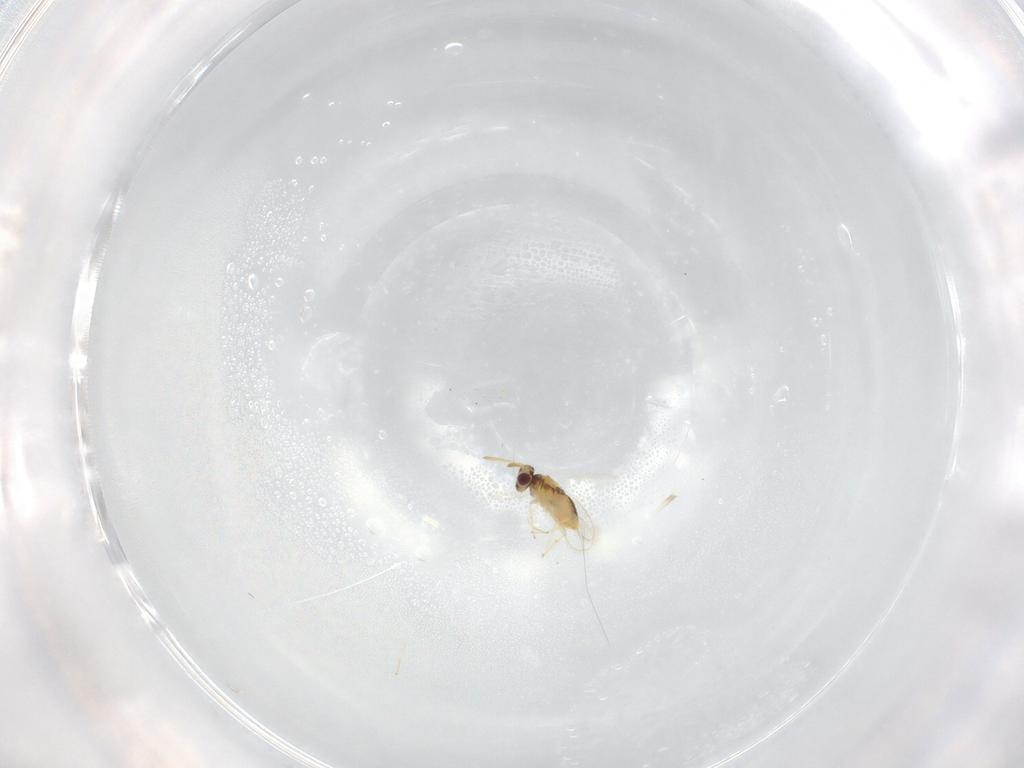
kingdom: Animalia
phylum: Arthropoda
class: Insecta
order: Hymenoptera
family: Aphelinidae
